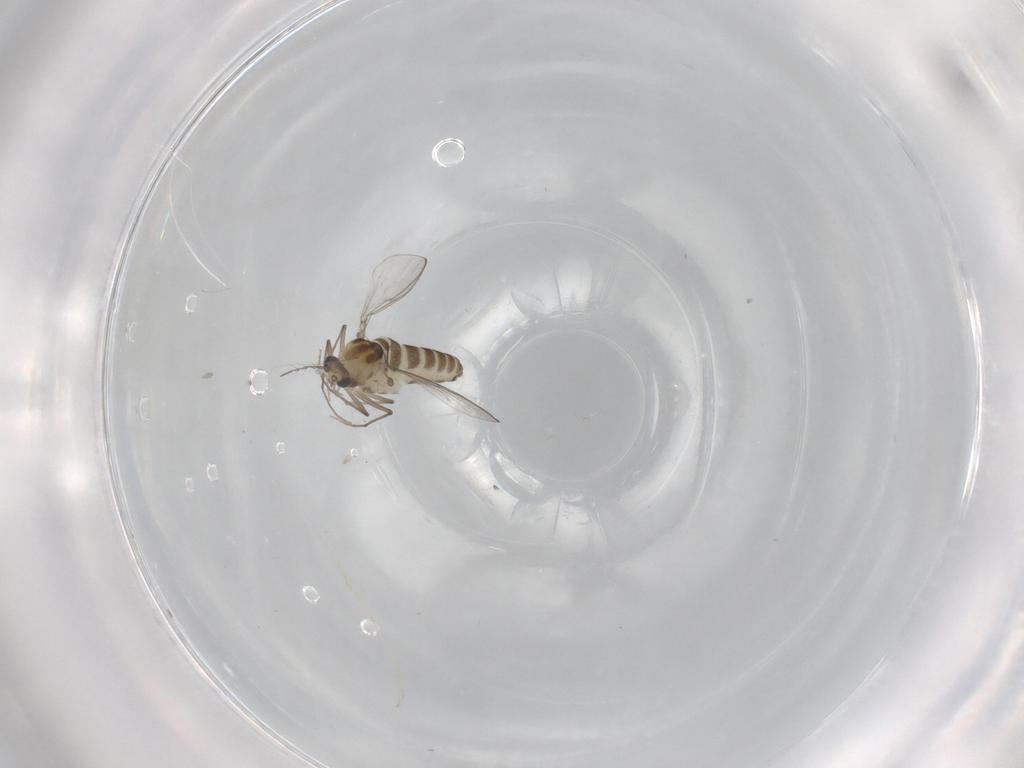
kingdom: Animalia
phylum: Arthropoda
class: Insecta
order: Diptera
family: Chironomidae
